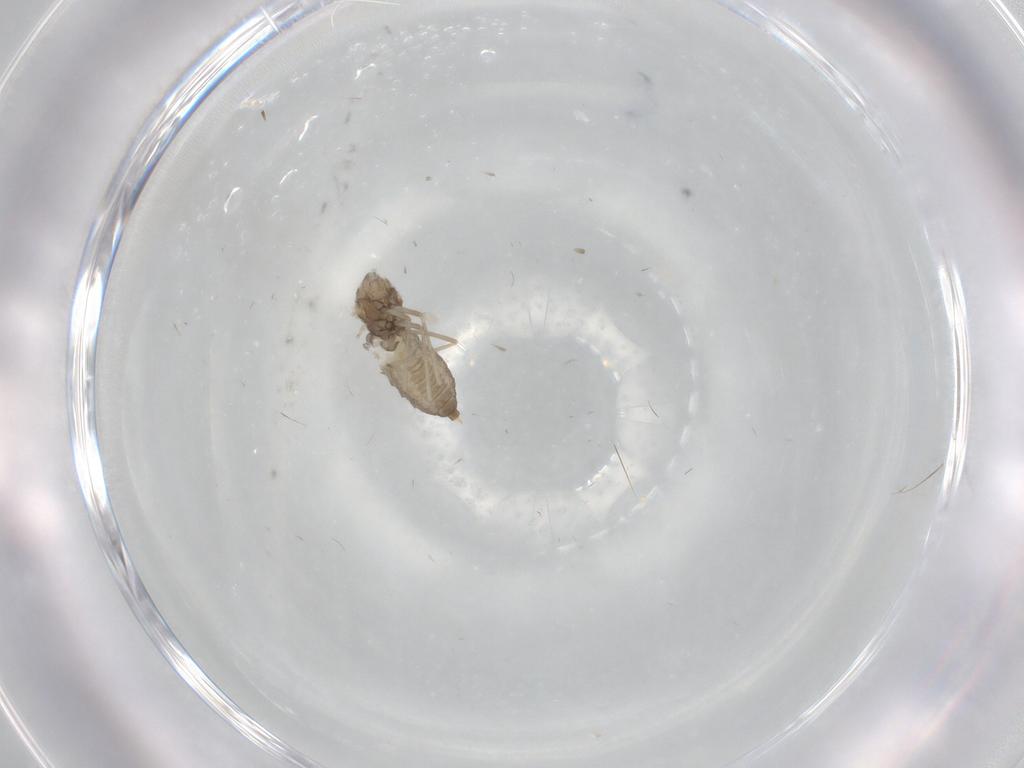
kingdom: Animalia
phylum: Arthropoda
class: Insecta
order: Diptera
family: Cecidomyiidae
